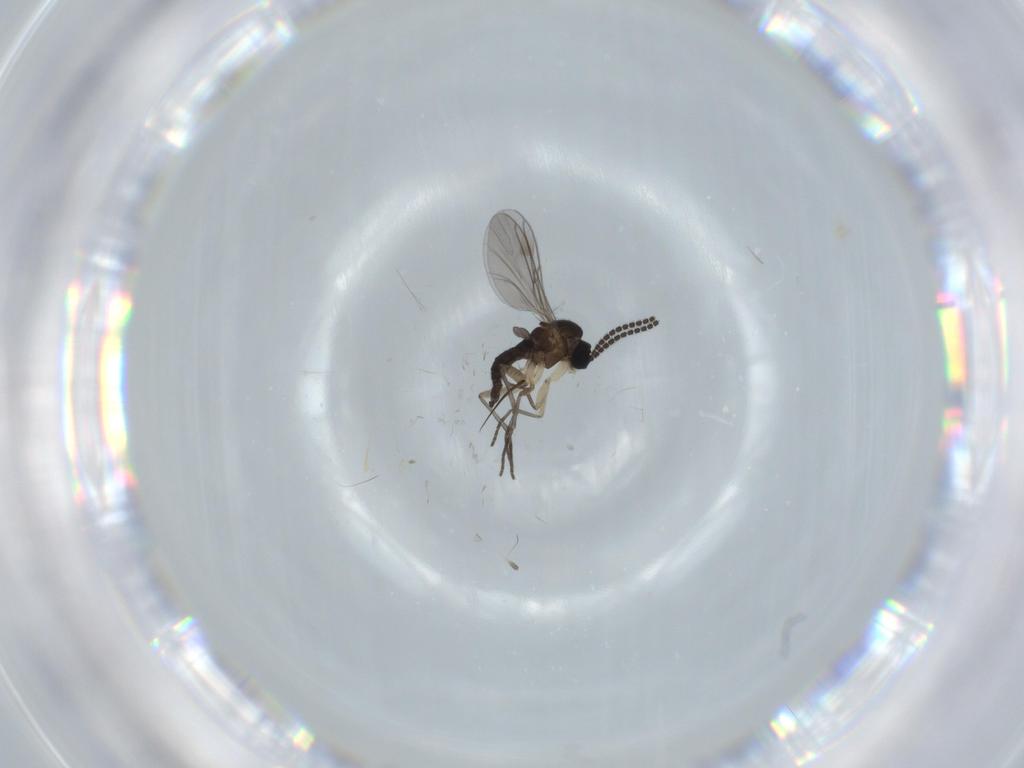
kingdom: Animalia
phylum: Arthropoda
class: Insecta
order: Diptera
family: Sciaridae
